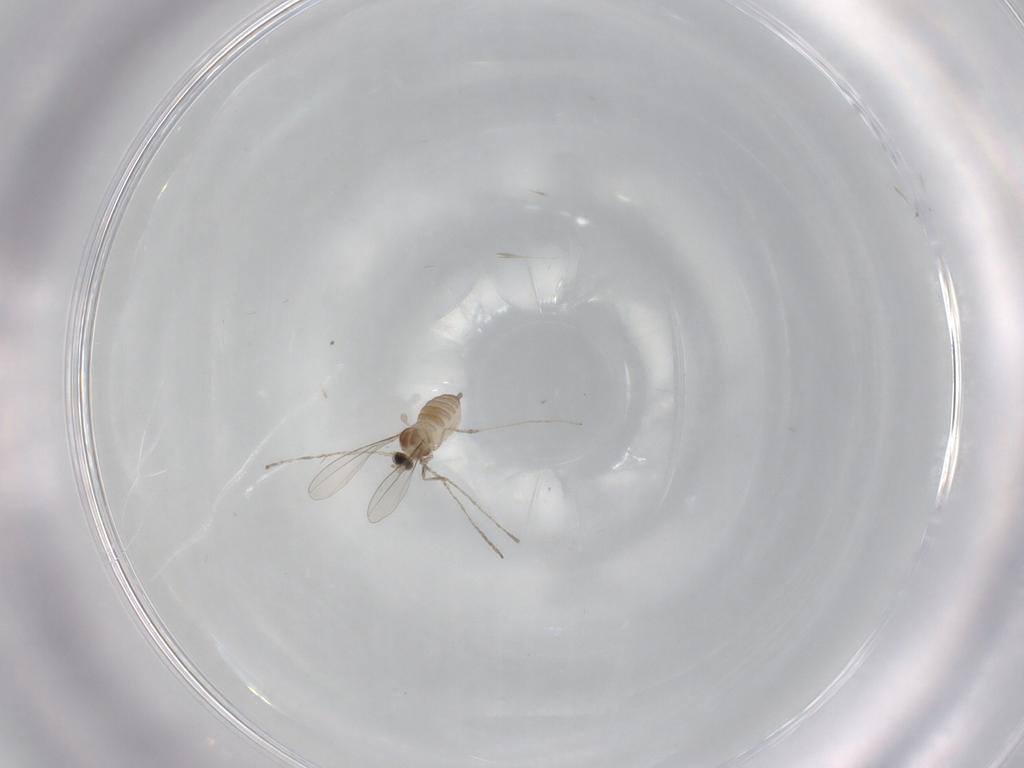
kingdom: Animalia
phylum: Arthropoda
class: Insecta
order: Diptera
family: Cecidomyiidae
